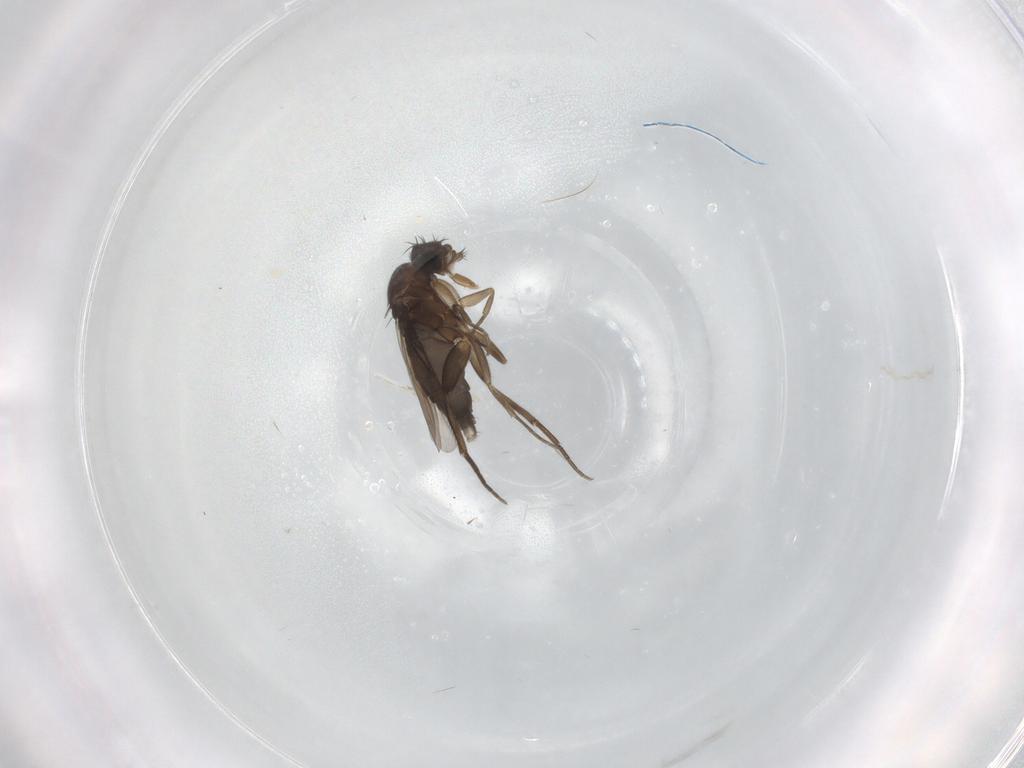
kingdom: Animalia
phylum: Arthropoda
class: Insecta
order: Diptera
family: Phoridae
